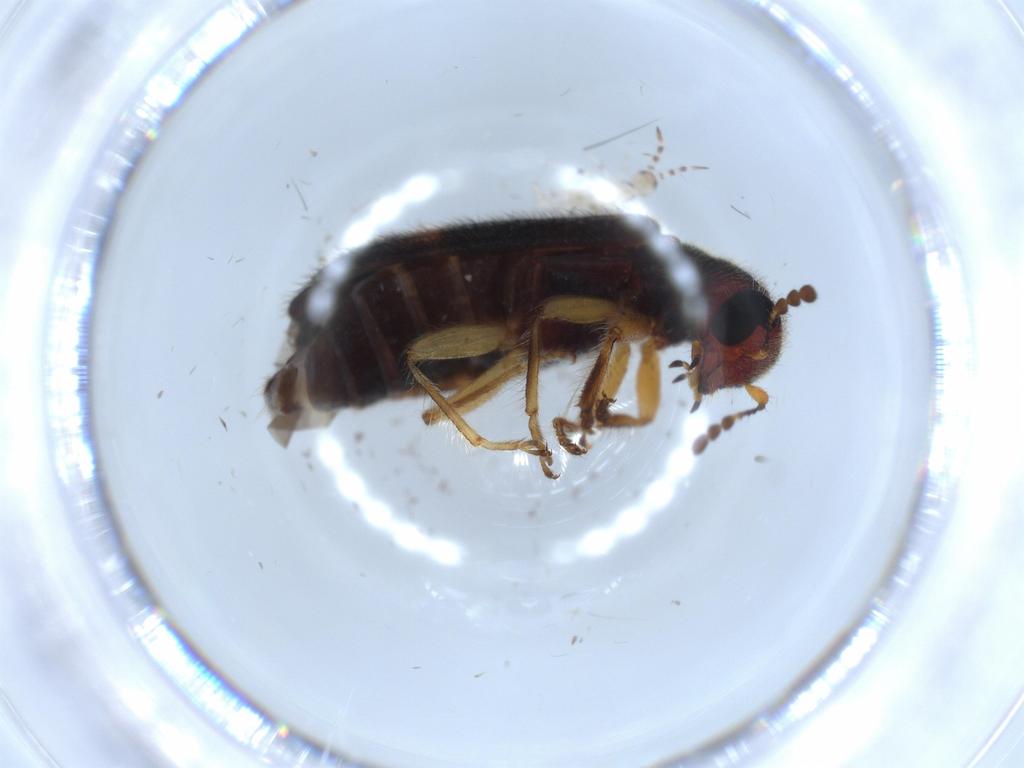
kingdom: Animalia
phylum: Arthropoda
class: Insecta
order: Coleoptera
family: Cleridae
